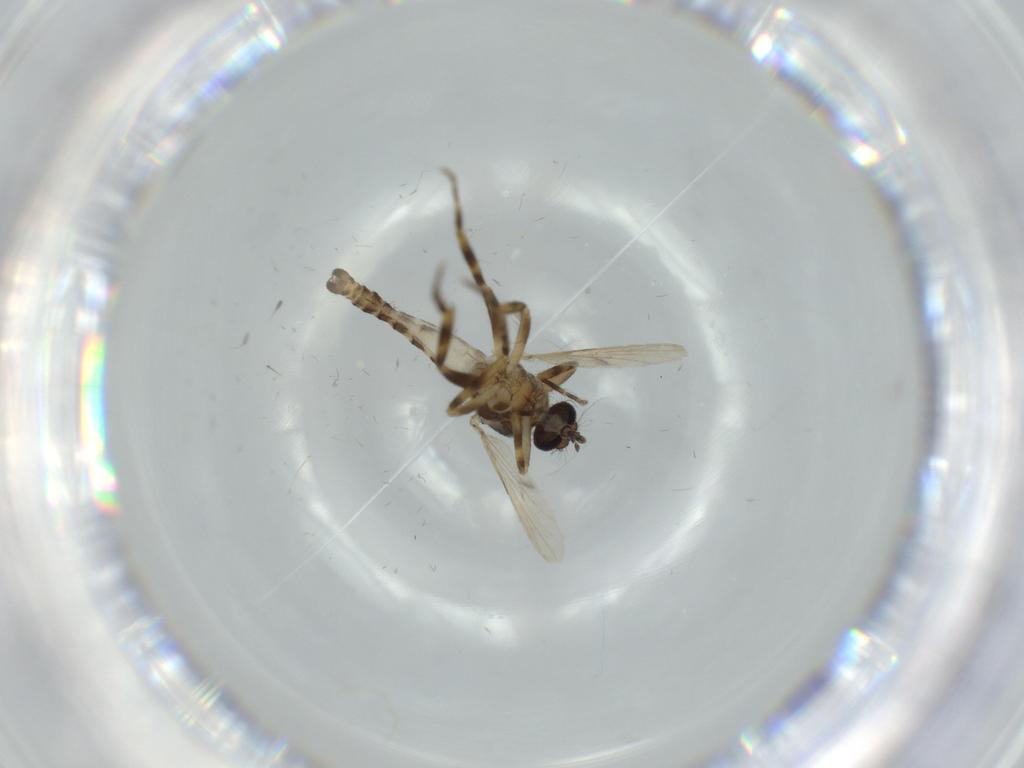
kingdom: Animalia
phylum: Arthropoda
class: Insecta
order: Diptera
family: Ceratopogonidae
